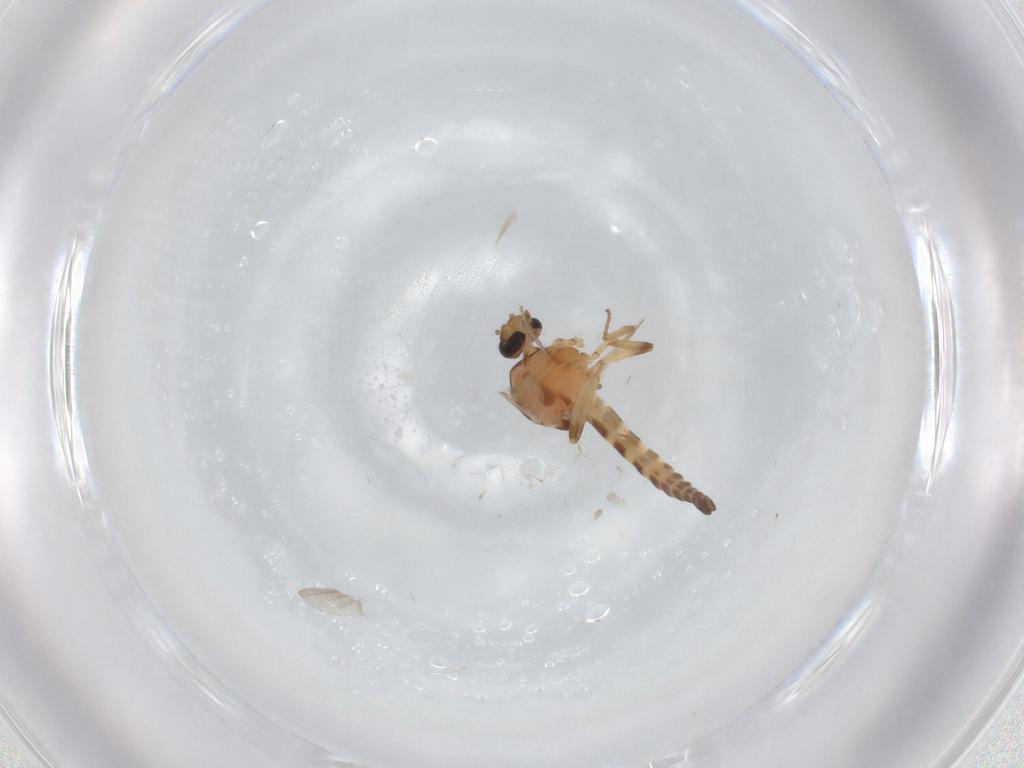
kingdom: Animalia
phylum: Arthropoda
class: Insecta
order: Diptera
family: Ceratopogonidae
